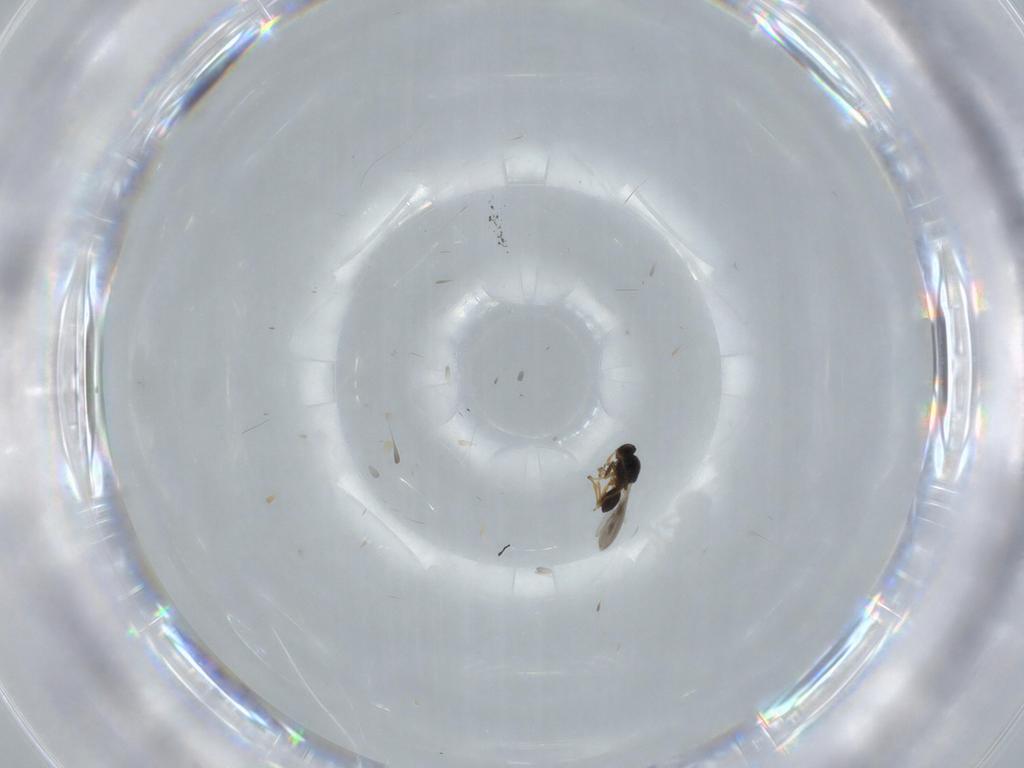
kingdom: Animalia
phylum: Arthropoda
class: Insecta
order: Hymenoptera
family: Platygastridae
